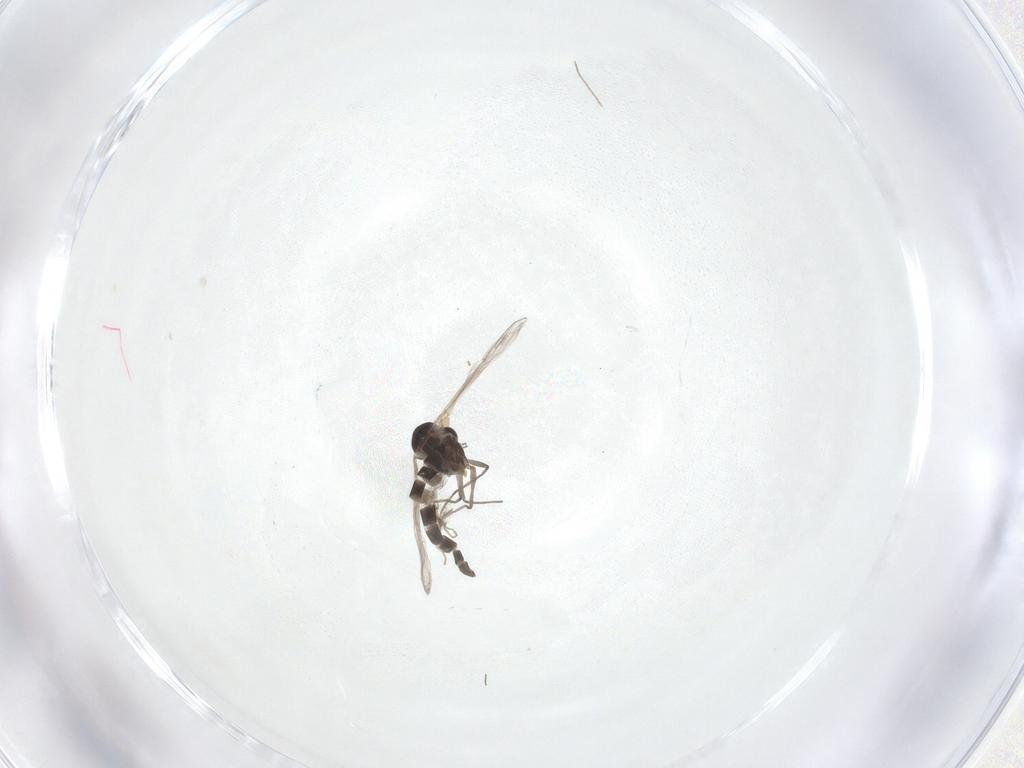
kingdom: Animalia
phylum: Arthropoda
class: Insecta
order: Diptera
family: Chironomidae
